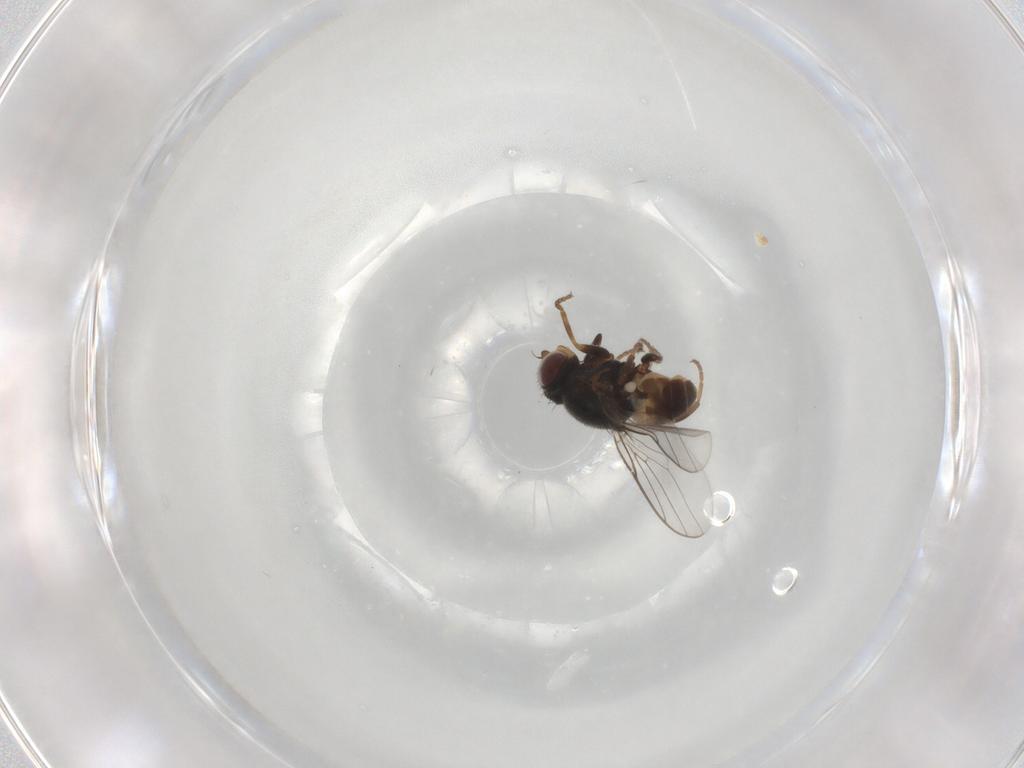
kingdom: Animalia
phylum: Arthropoda
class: Insecta
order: Diptera
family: Chloropidae
